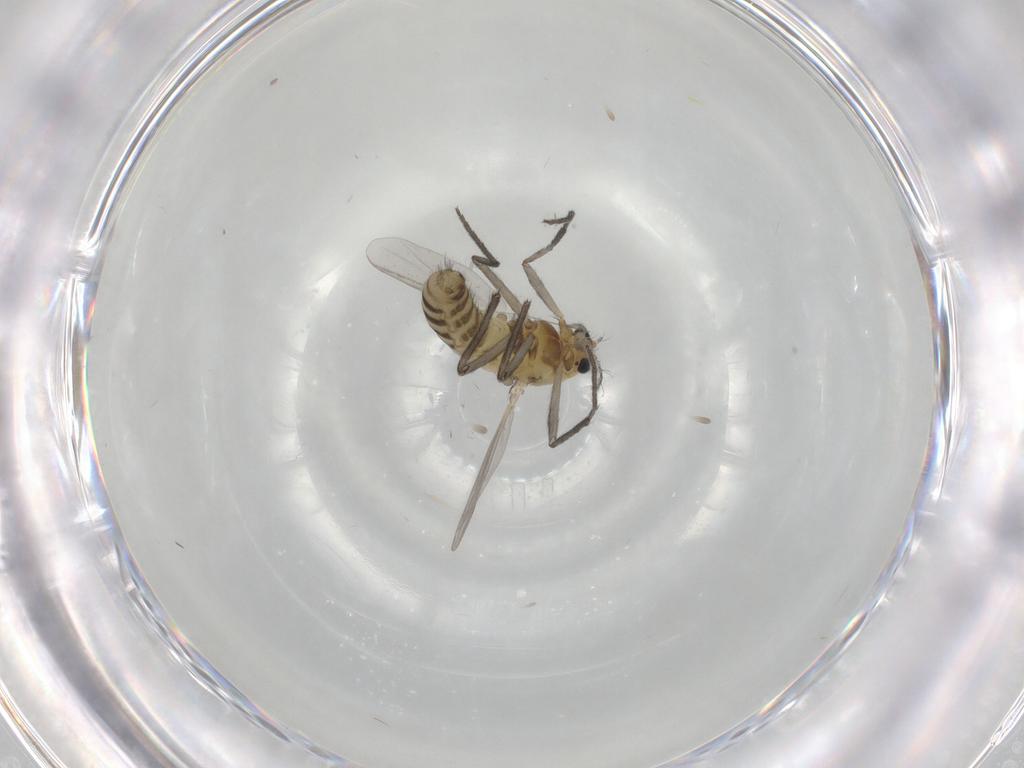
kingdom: Animalia
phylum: Arthropoda
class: Insecta
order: Diptera
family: Chironomidae
